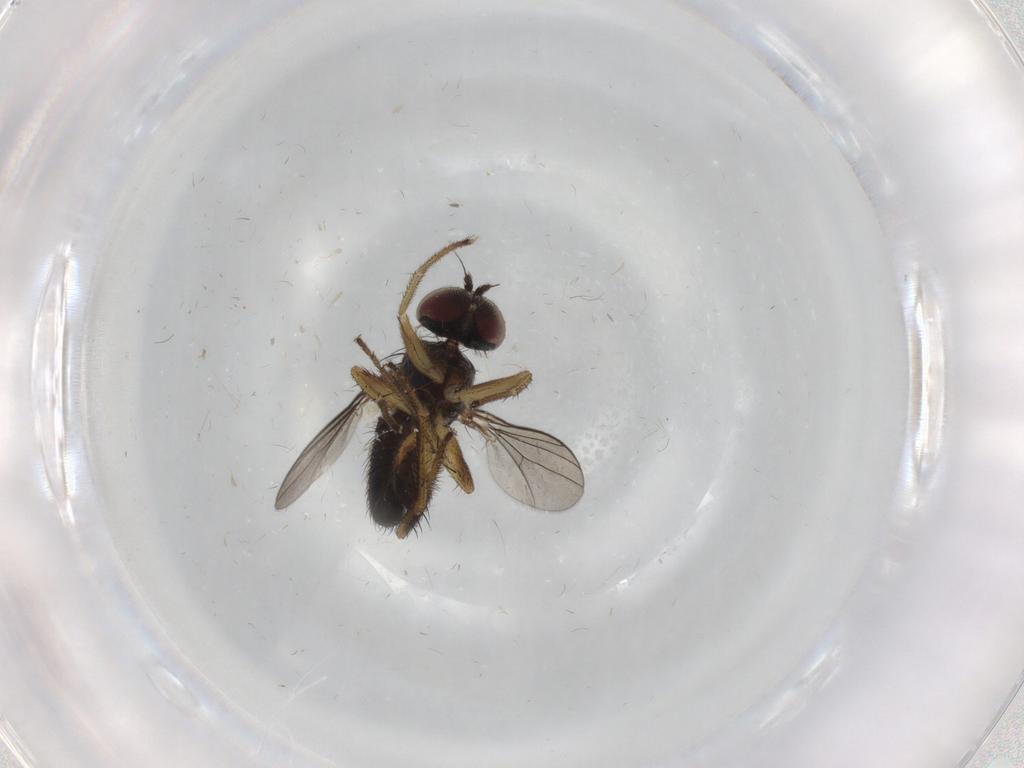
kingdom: Animalia
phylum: Arthropoda
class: Insecta
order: Diptera
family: Dolichopodidae
